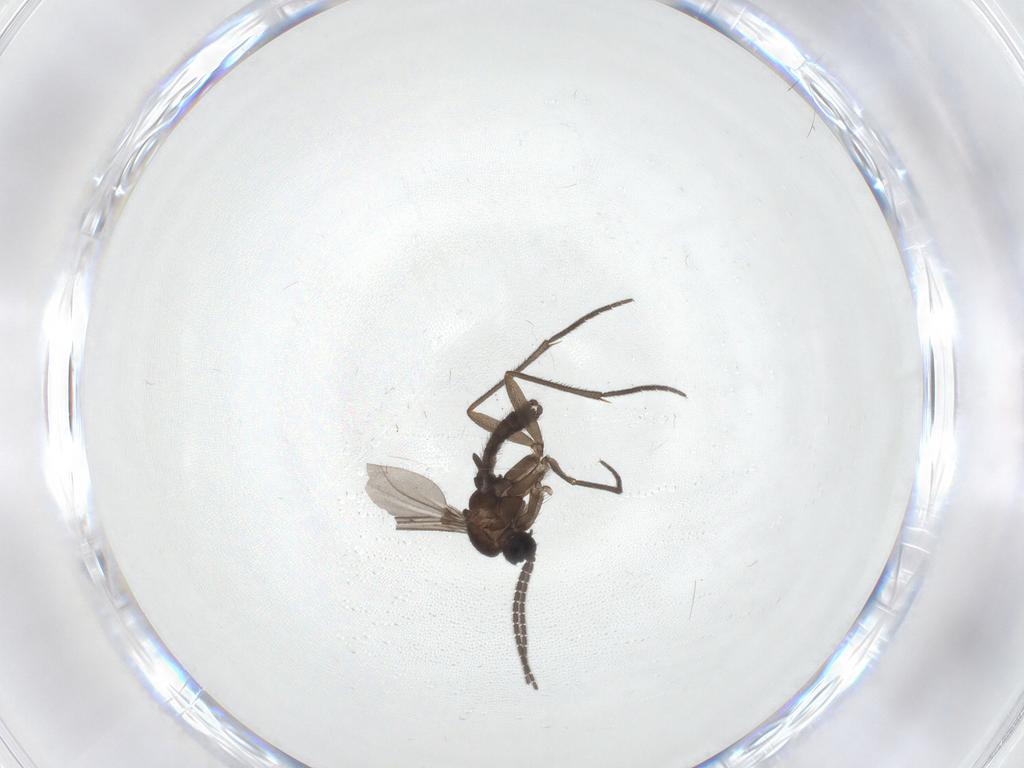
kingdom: Animalia
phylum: Arthropoda
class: Insecta
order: Diptera
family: Sciaridae
